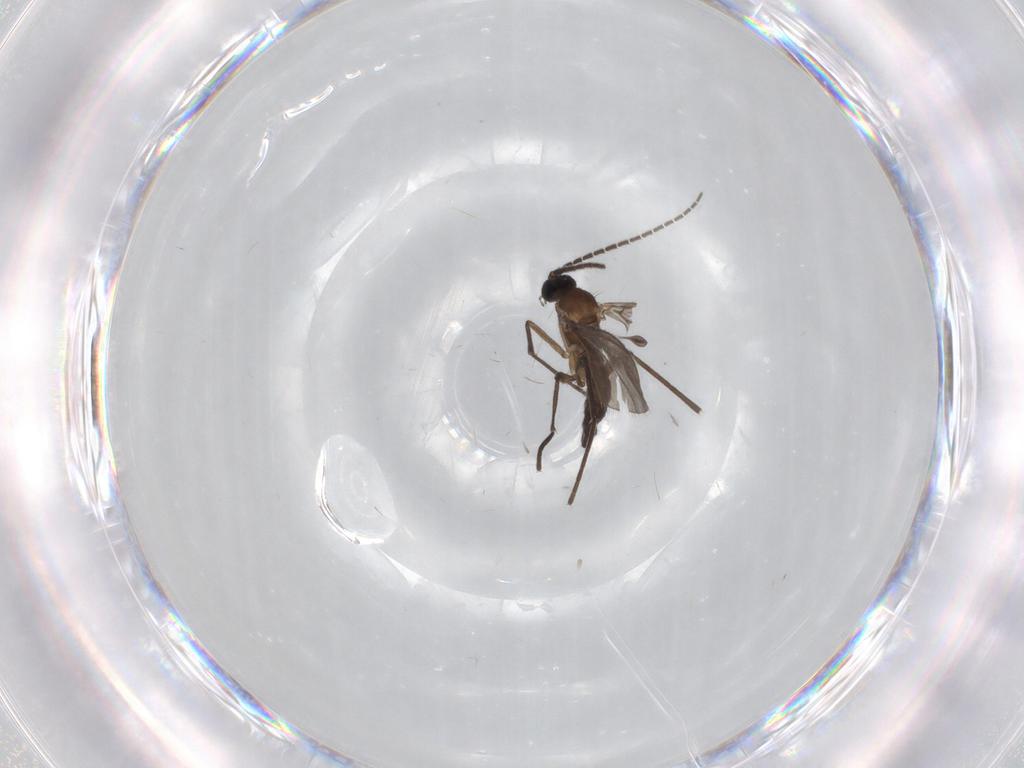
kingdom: Animalia
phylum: Arthropoda
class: Insecta
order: Diptera
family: Sciaridae
